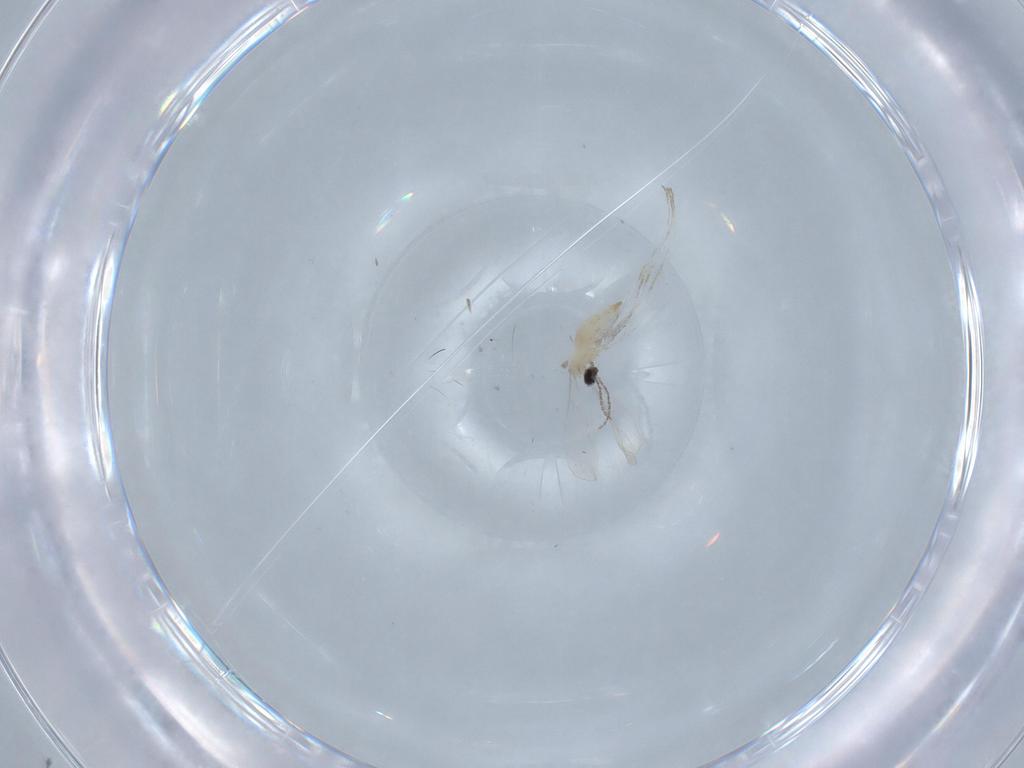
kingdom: Animalia
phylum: Arthropoda
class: Insecta
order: Diptera
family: Cecidomyiidae
